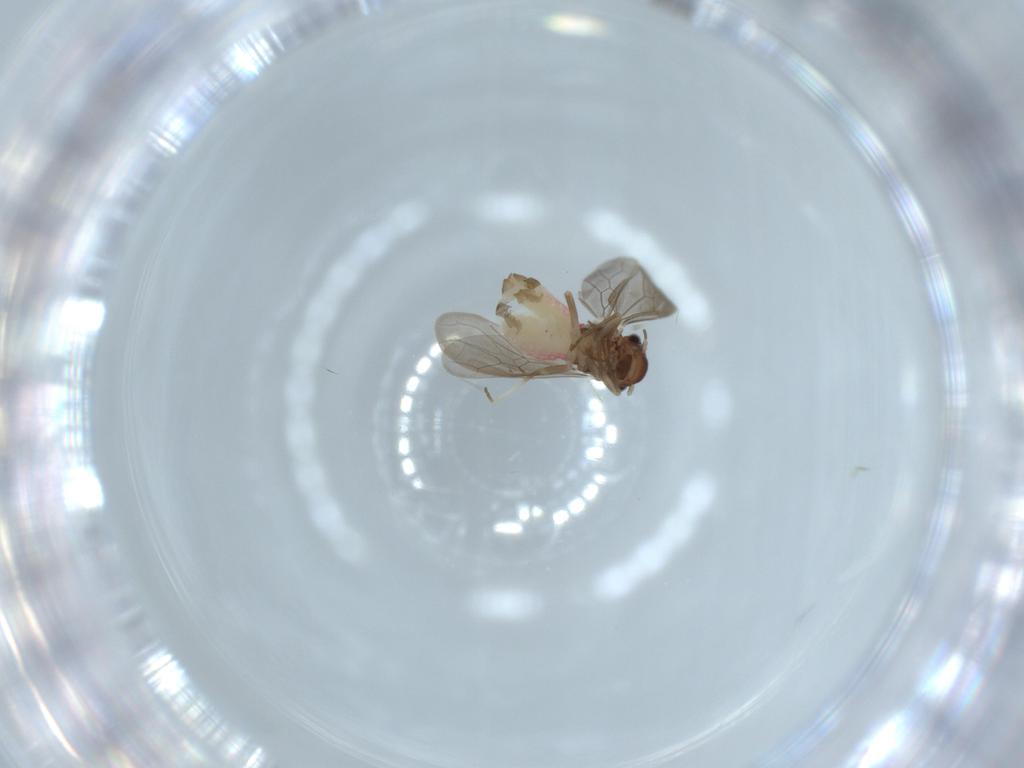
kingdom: Animalia
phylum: Arthropoda
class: Insecta
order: Psocodea
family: Asiopsocidae
